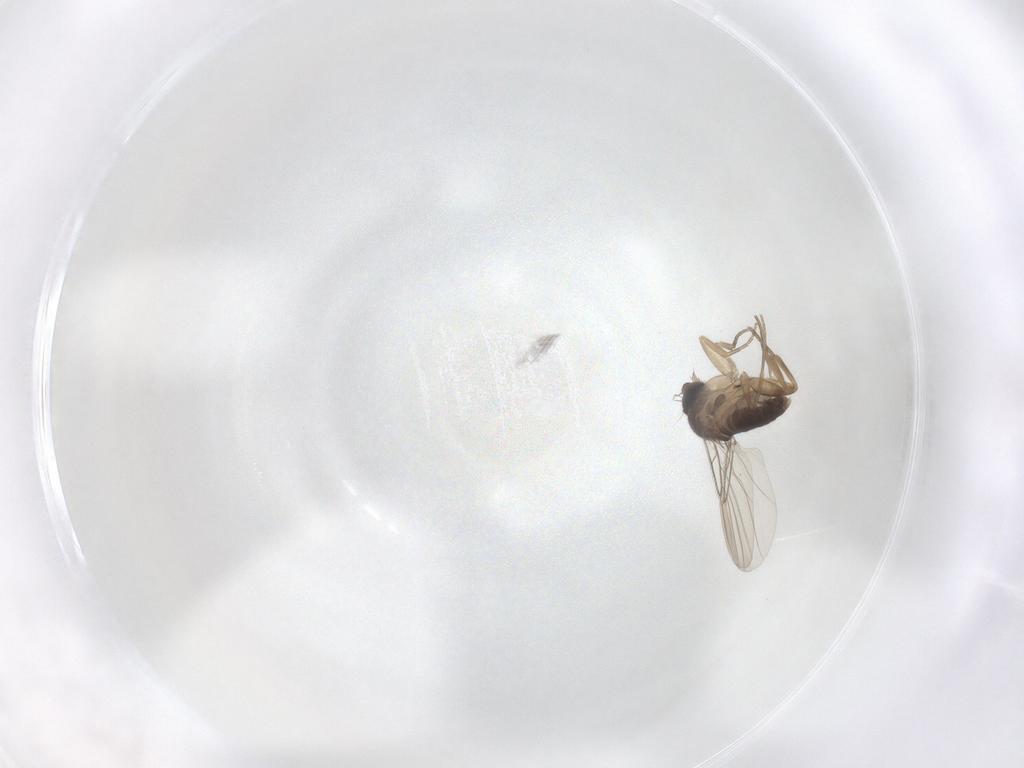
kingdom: Animalia
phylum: Arthropoda
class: Insecta
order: Diptera
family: Phoridae
